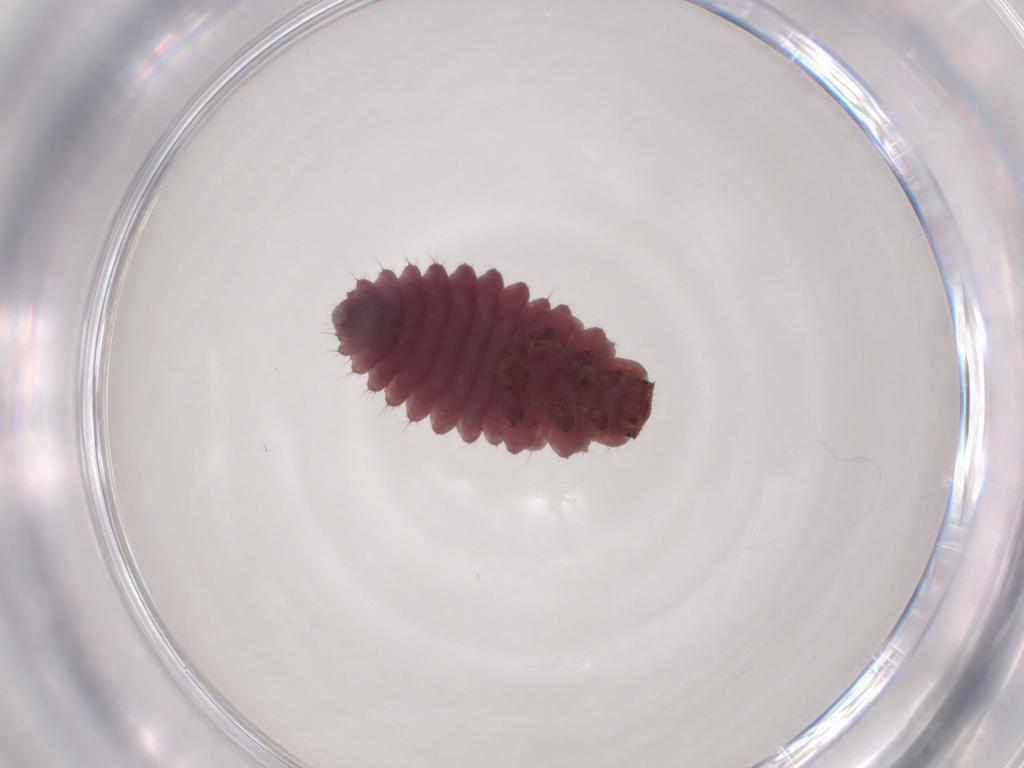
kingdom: Animalia
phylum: Arthropoda
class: Insecta
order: Coleoptera
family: Coccinellidae
